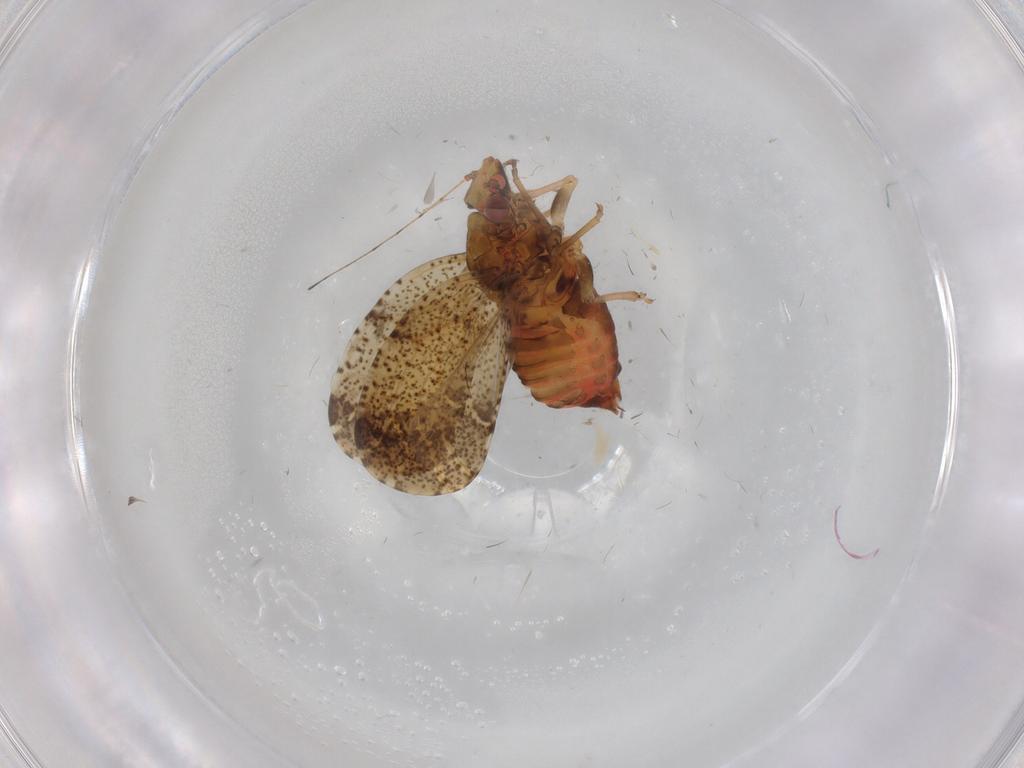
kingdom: Animalia
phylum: Arthropoda
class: Insecta
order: Hemiptera
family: Psyllidae
